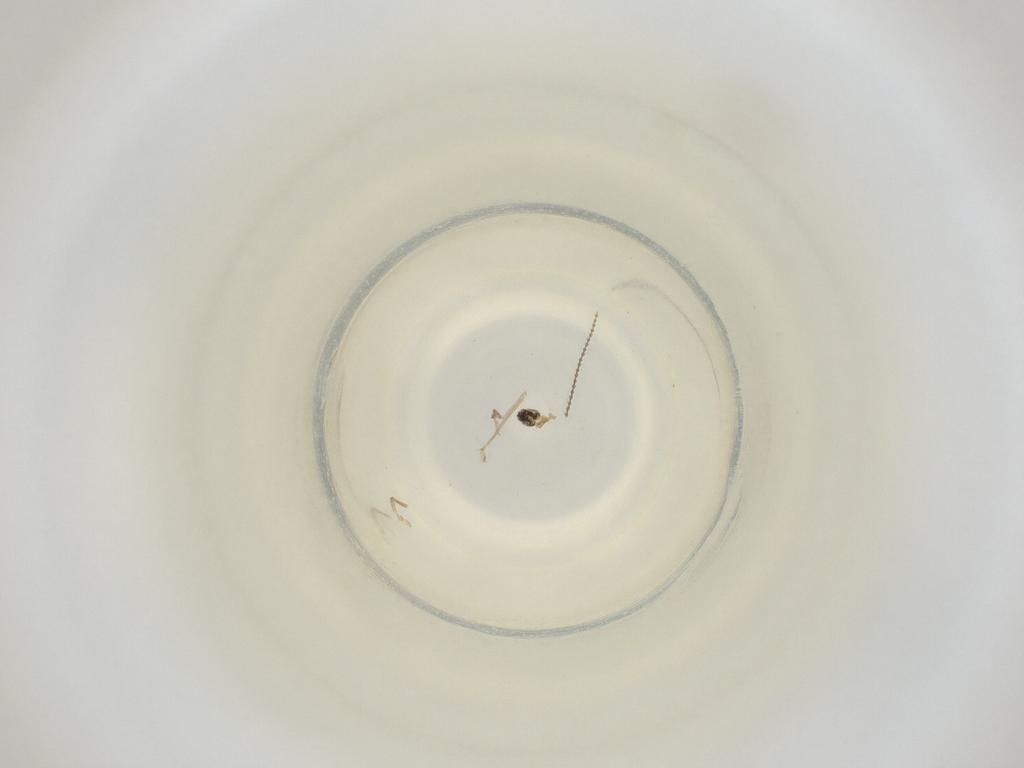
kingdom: Animalia
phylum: Arthropoda
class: Insecta
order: Diptera
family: Cecidomyiidae
